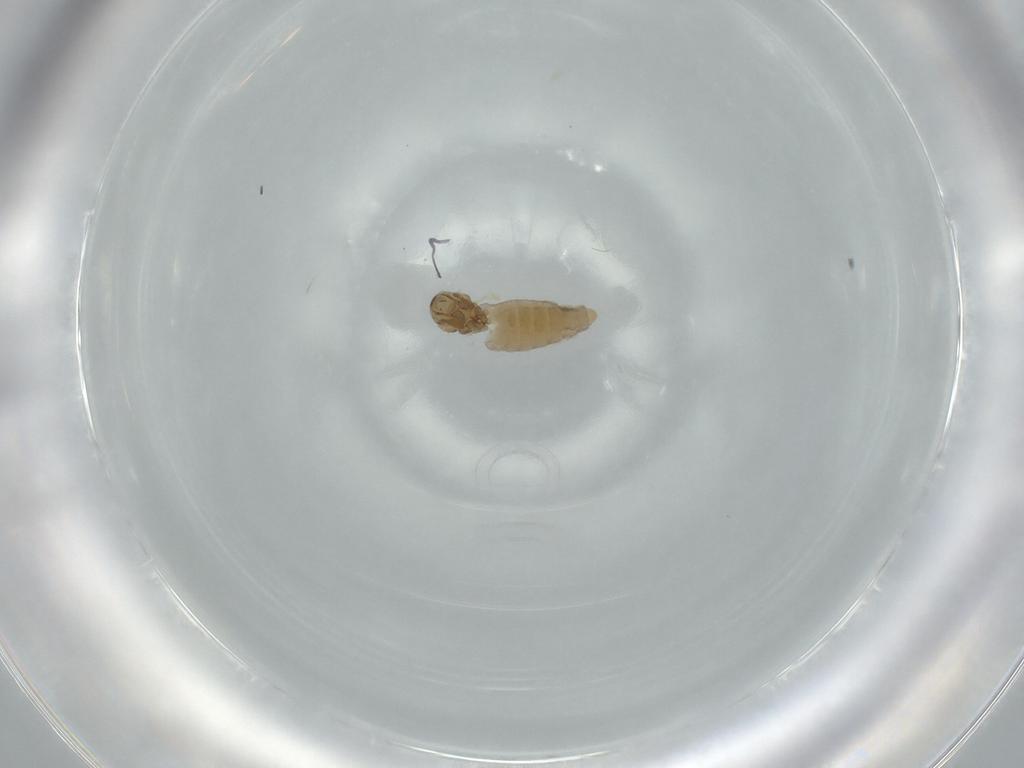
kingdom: Animalia
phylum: Arthropoda
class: Insecta
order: Diptera
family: Cecidomyiidae
